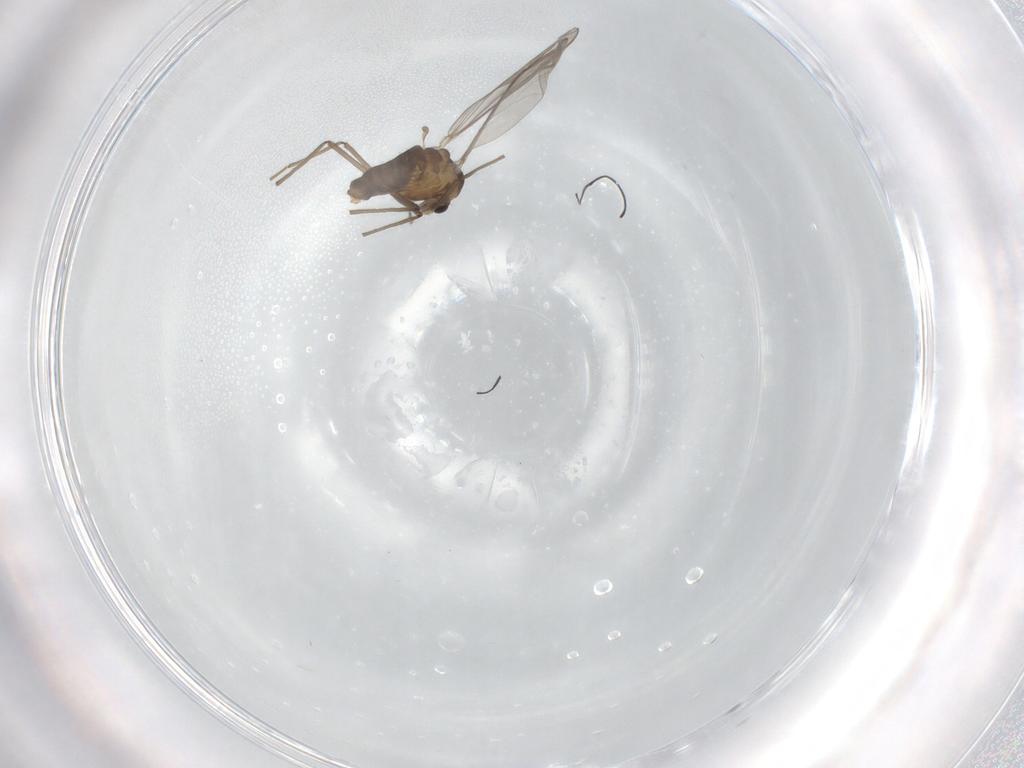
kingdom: Animalia
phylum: Arthropoda
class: Insecta
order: Diptera
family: Chironomidae
